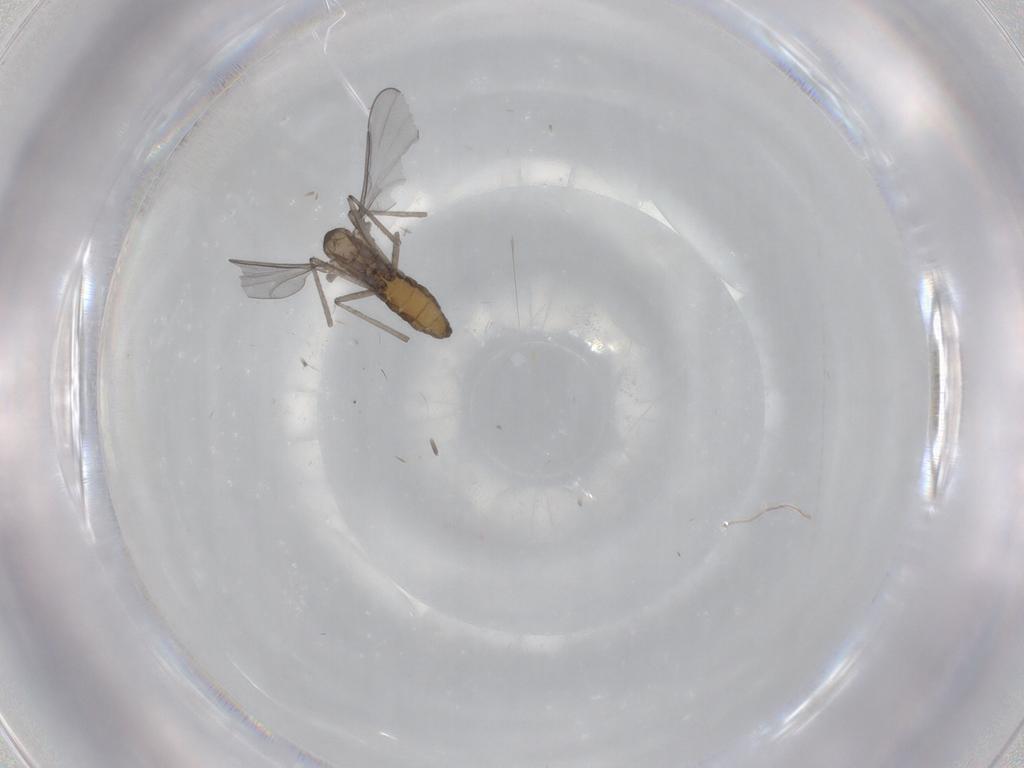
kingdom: Animalia
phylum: Arthropoda
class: Insecta
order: Diptera
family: Cecidomyiidae
